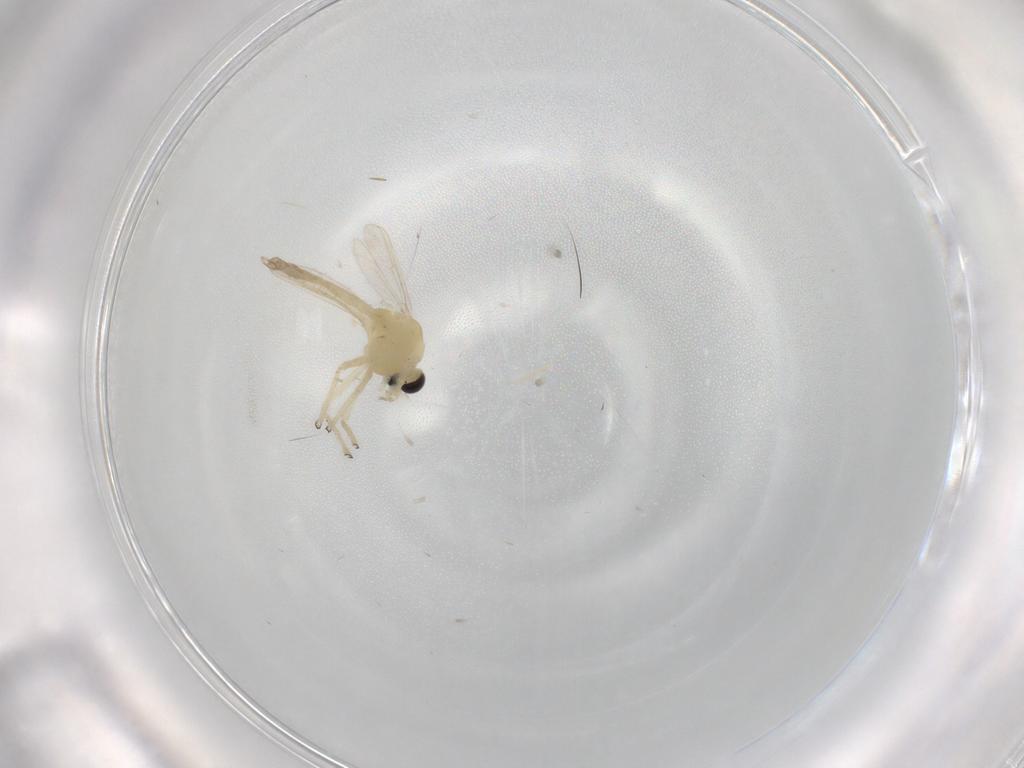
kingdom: Animalia
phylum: Arthropoda
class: Insecta
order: Diptera
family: Chironomidae
